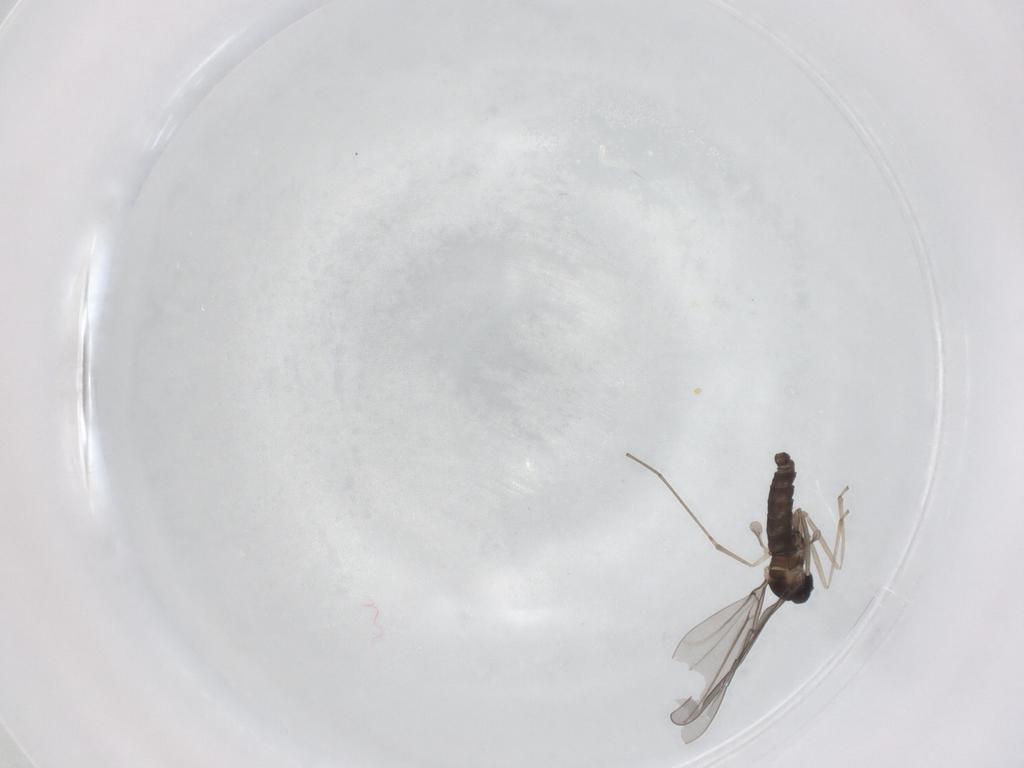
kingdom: Animalia
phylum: Arthropoda
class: Insecta
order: Diptera
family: Cecidomyiidae
